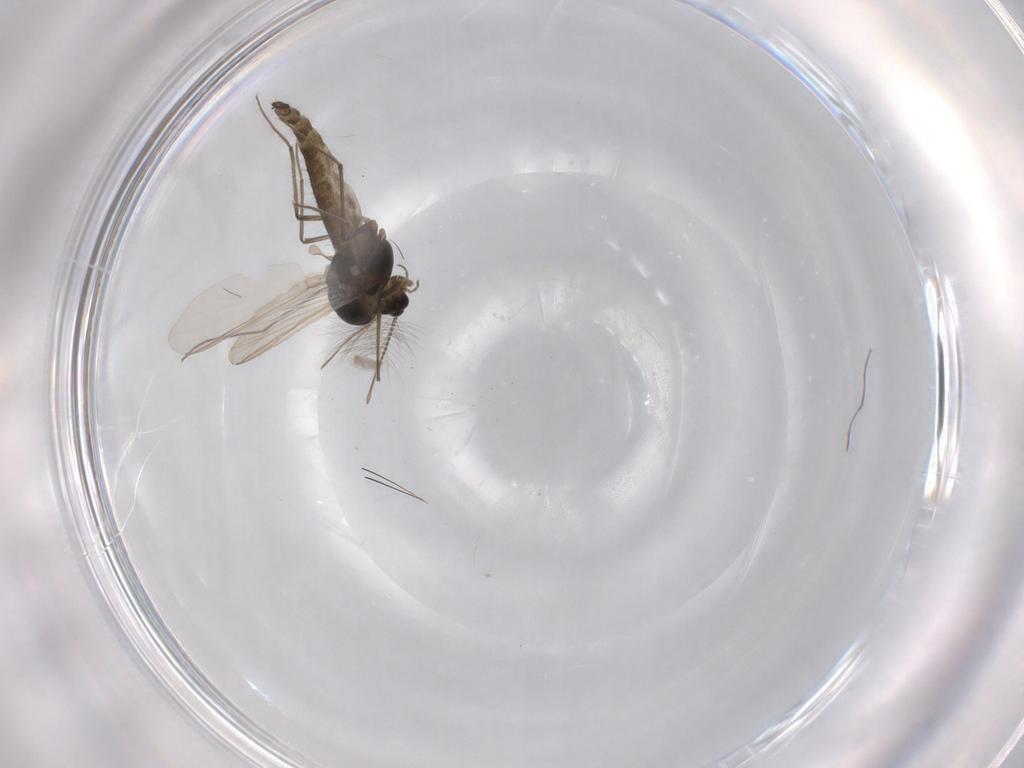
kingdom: Animalia
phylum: Arthropoda
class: Insecta
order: Diptera
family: Chironomidae
